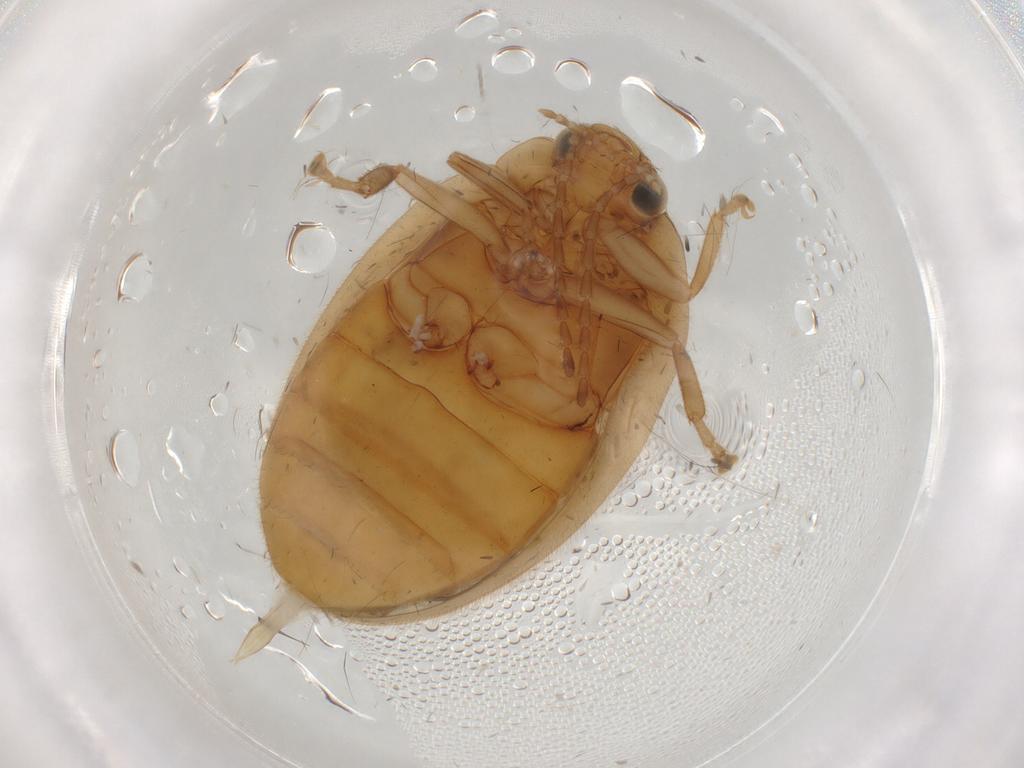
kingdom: Animalia
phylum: Arthropoda
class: Insecta
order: Coleoptera
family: Scirtidae
